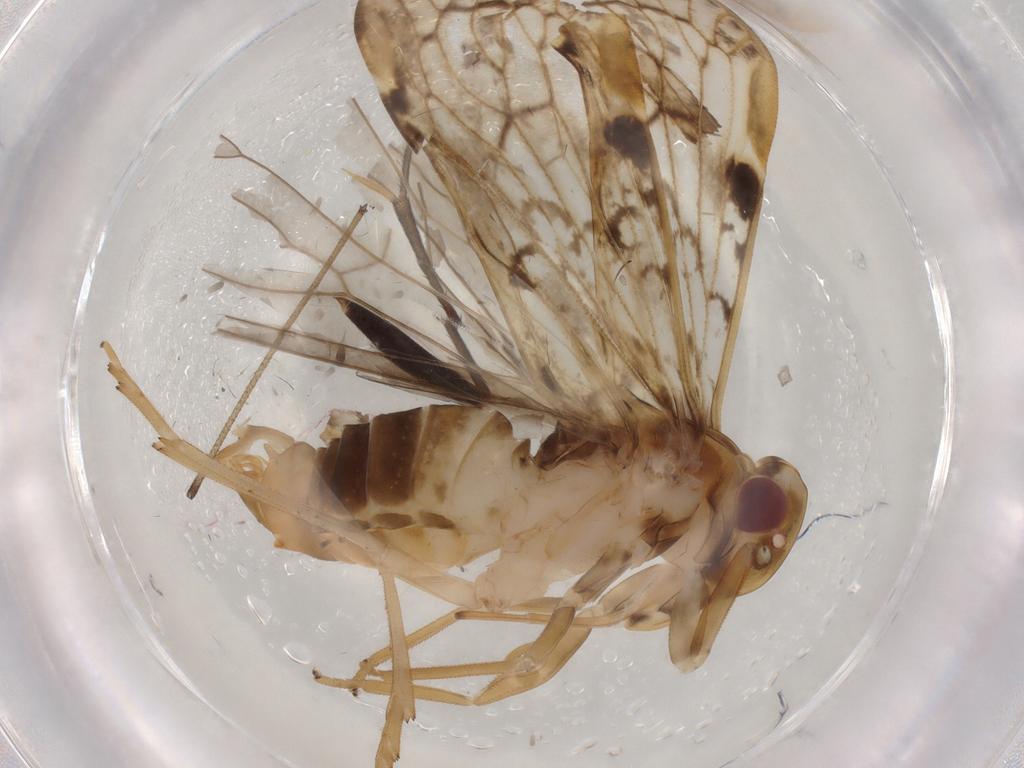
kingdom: Animalia
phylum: Arthropoda
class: Insecta
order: Hemiptera
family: Cixiidae
